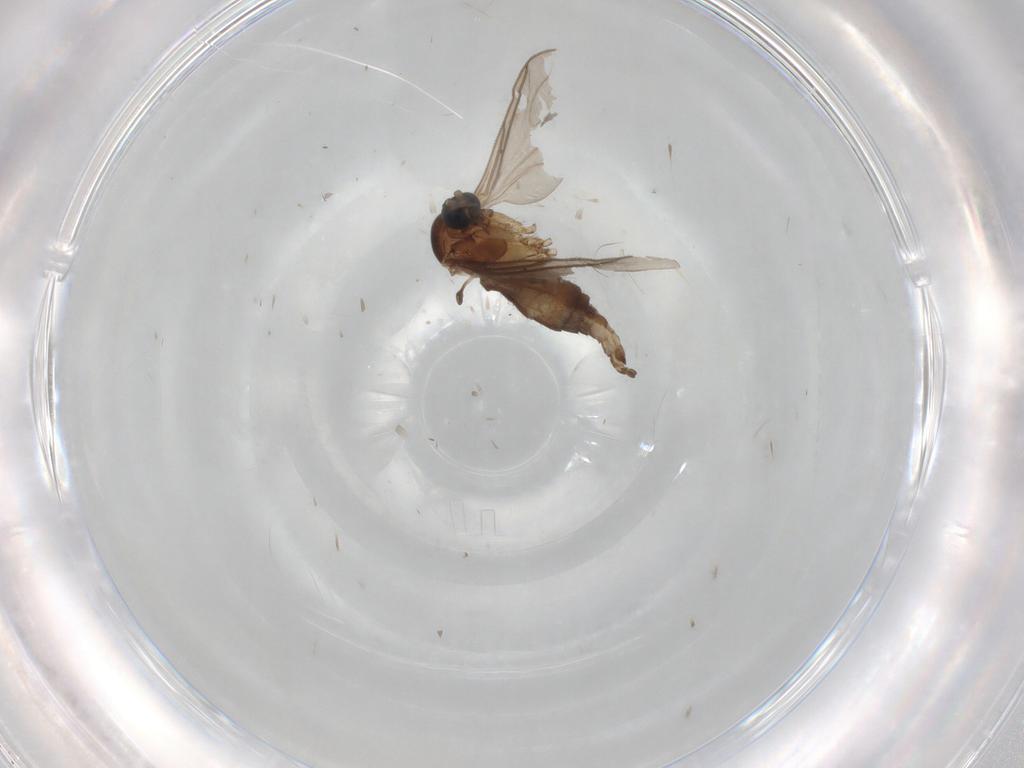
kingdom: Animalia
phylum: Arthropoda
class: Insecta
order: Diptera
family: Sciaridae
